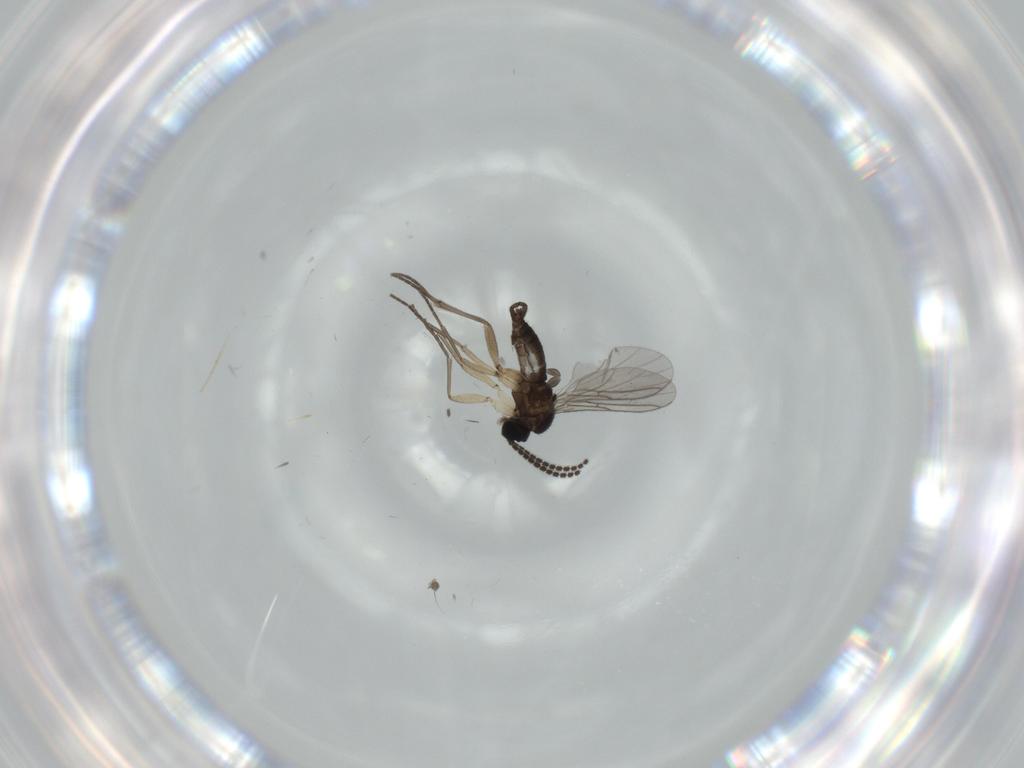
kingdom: Animalia
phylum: Arthropoda
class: Insecta
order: Diptera
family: Sciaridae
